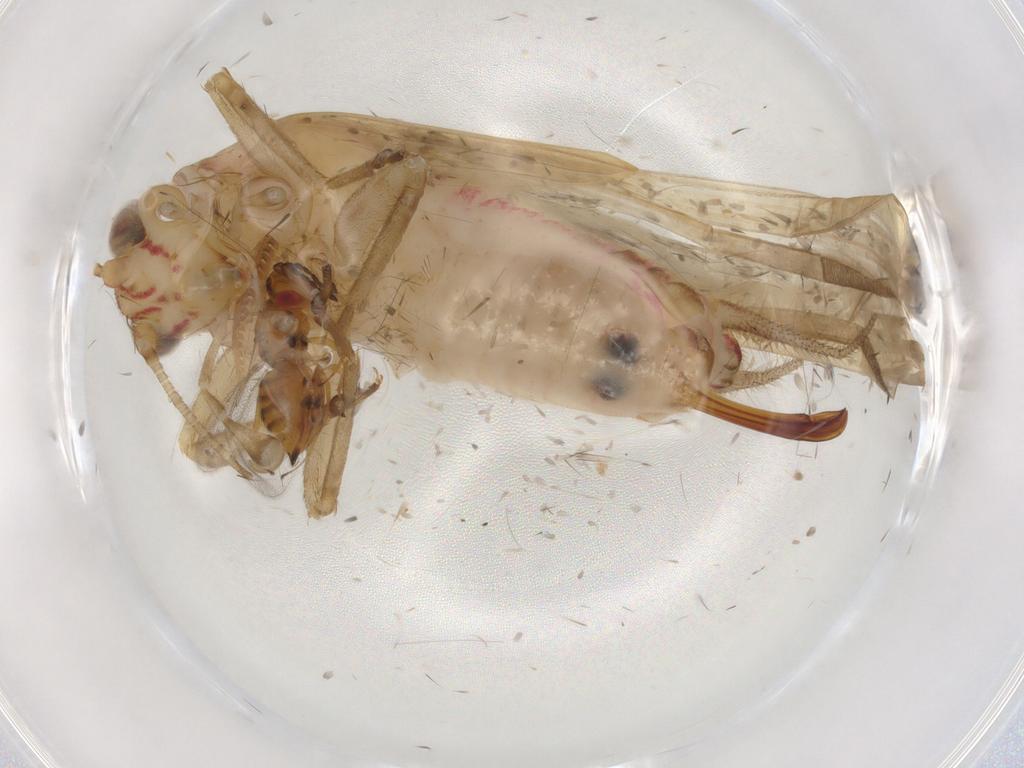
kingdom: Animalia
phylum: Arthropoda
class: Insecta
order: Orthoptera
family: Trigonidiidae
